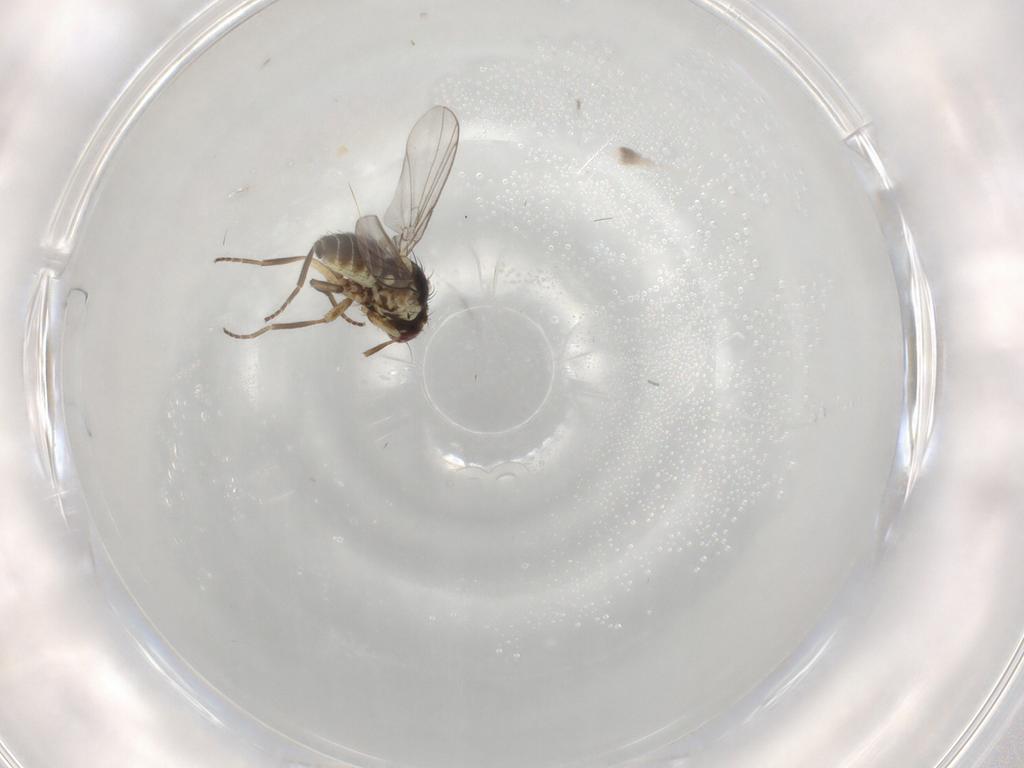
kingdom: Animalia
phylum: Arthropoda
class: Insecta
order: Diptera
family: Agromyzidae
